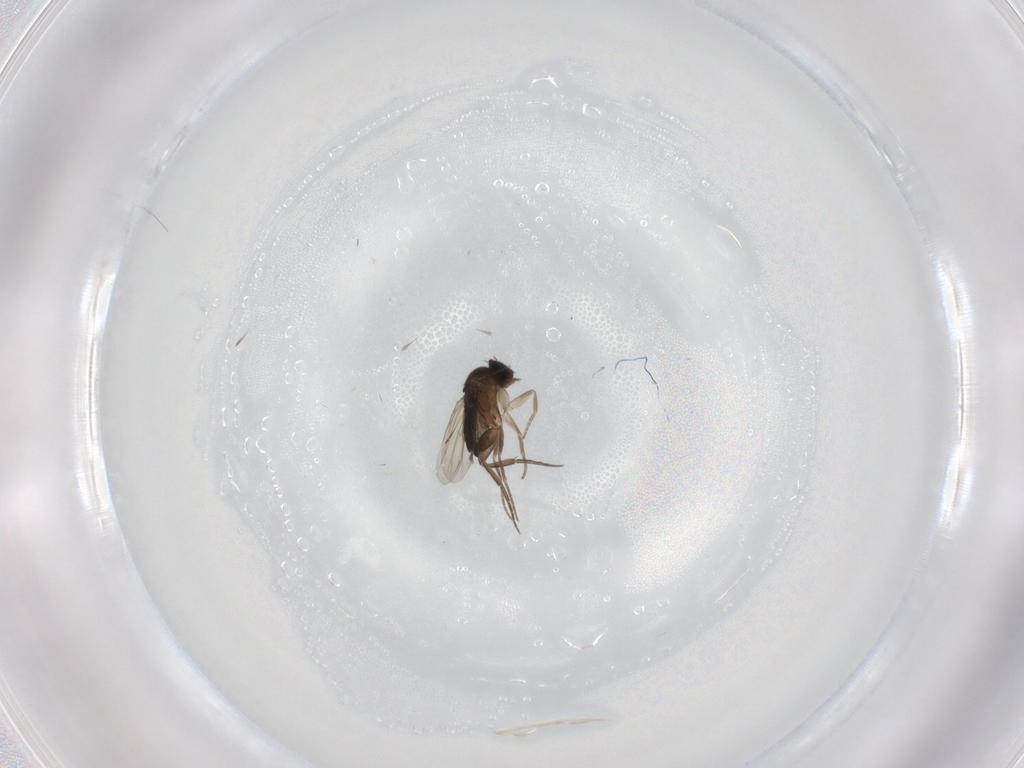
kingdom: Animalia
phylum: Arthropoda
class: Insecta
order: Diptera
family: Phoridae
